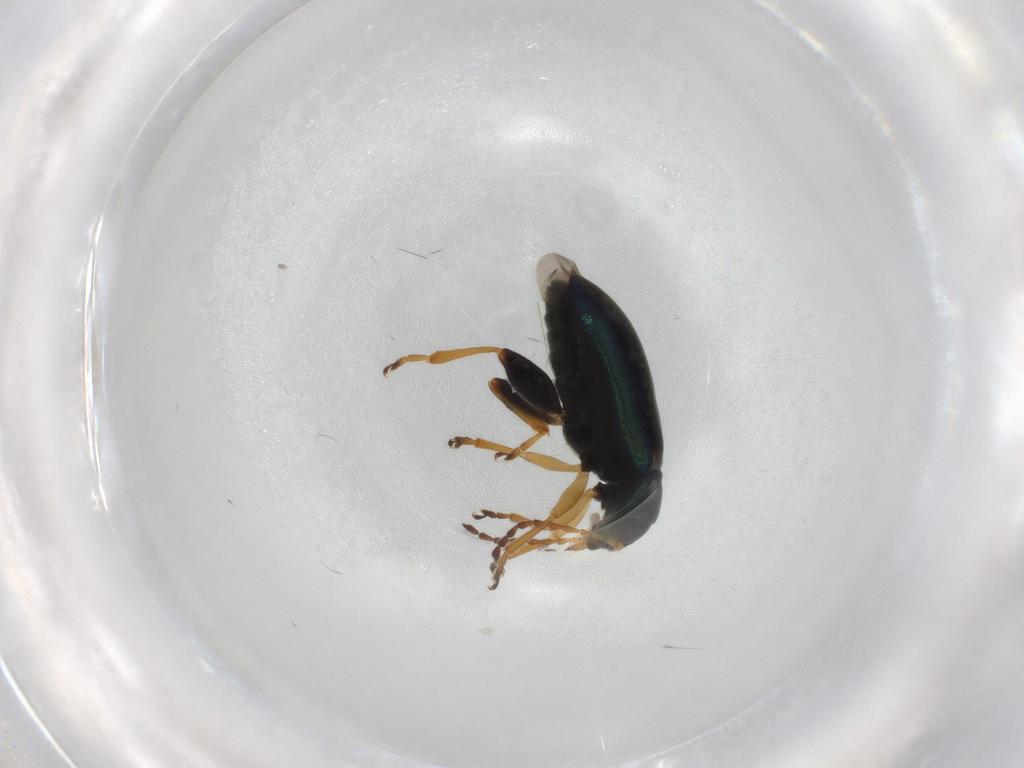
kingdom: Animalia
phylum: Arthropoda
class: Insecta
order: Coleoptera
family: Chrysomelidae
